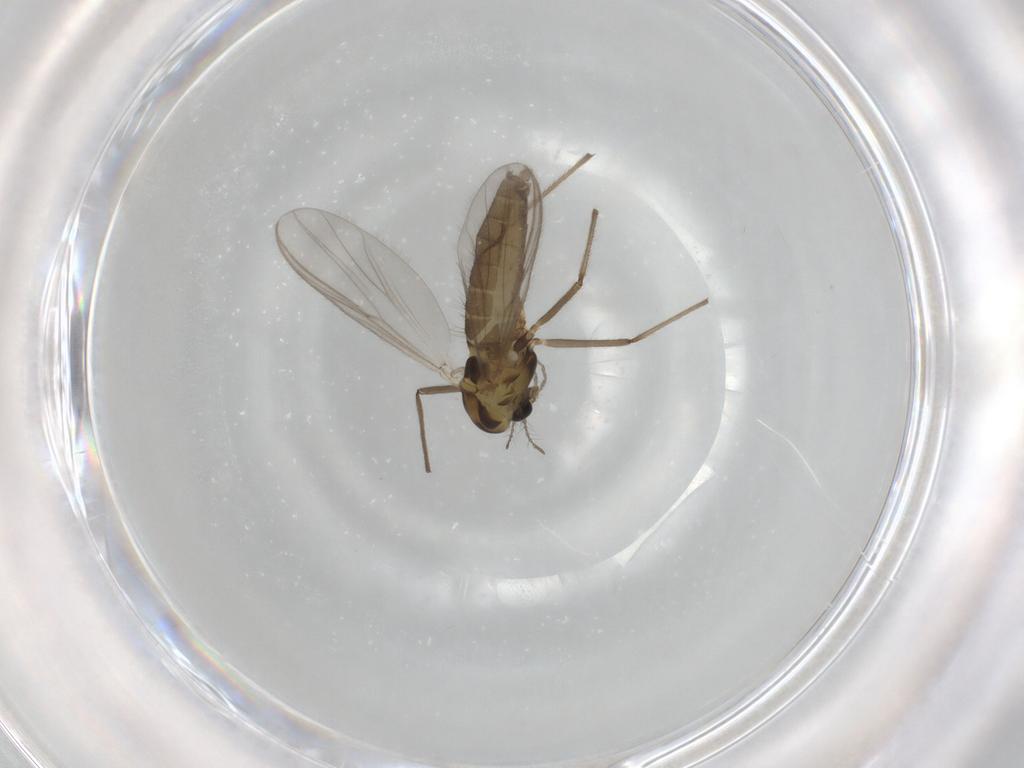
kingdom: Animalia
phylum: Arthropoda
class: Insecta
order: Diptera
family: Chironomidae
